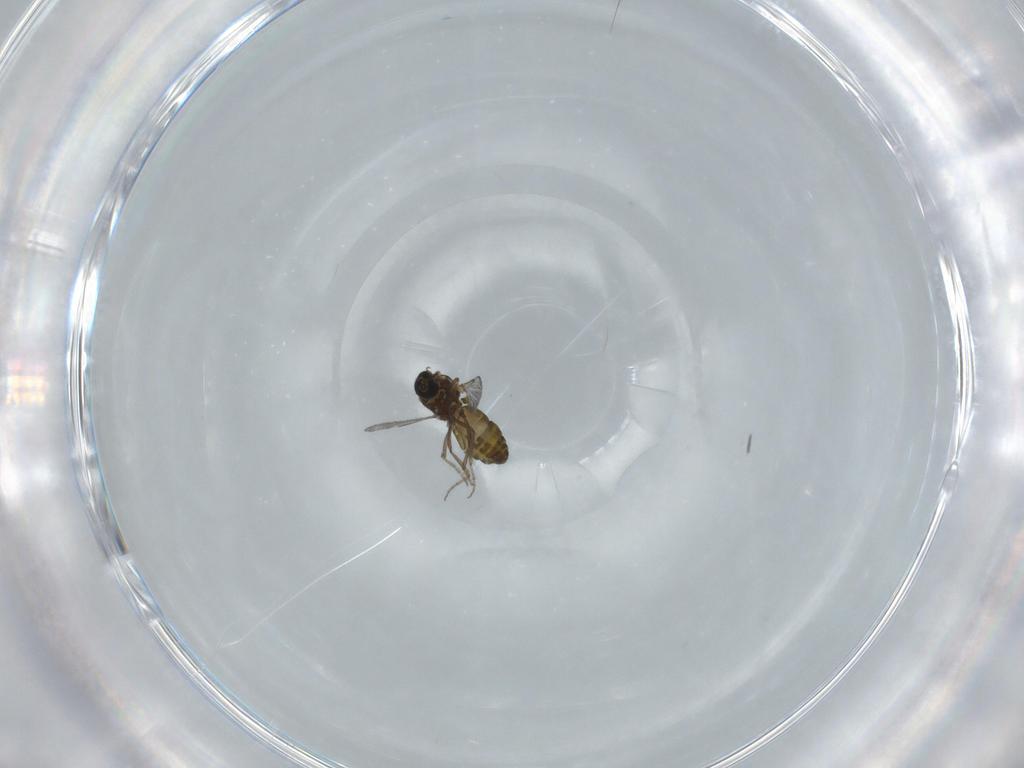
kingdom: Animalia
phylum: Arthropoda
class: Insecta
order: Diptera
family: Ceratopogonidae
